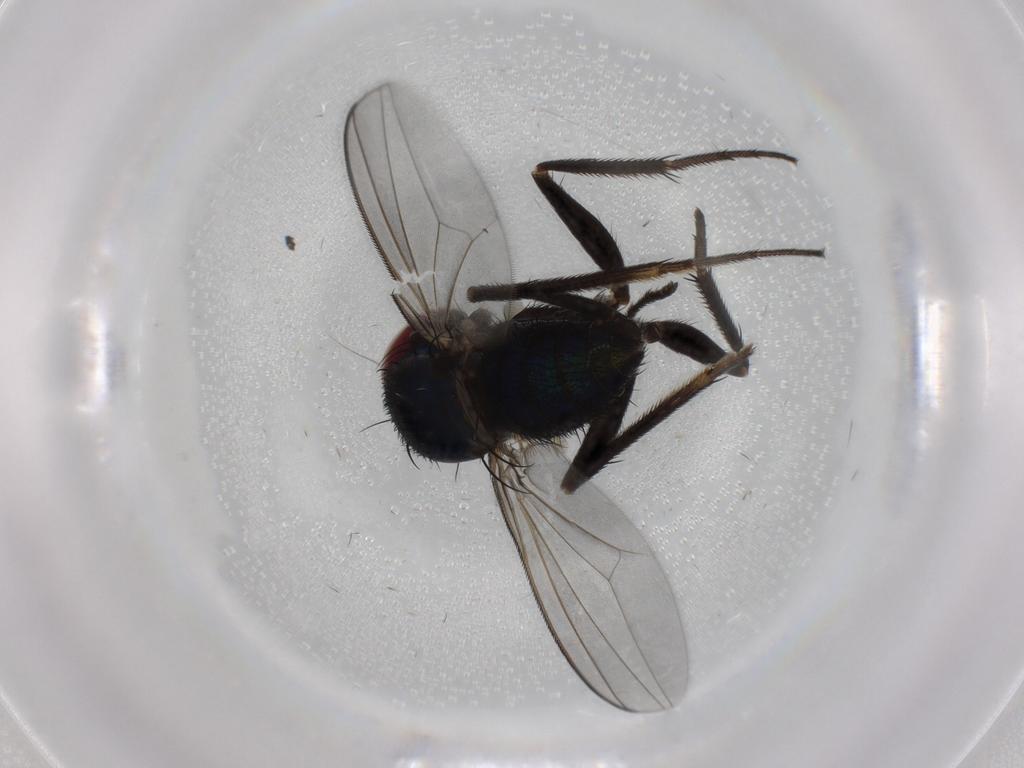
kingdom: Animalia
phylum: Arthropoda
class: Insecta
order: Diptera
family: Dolichopodidae
